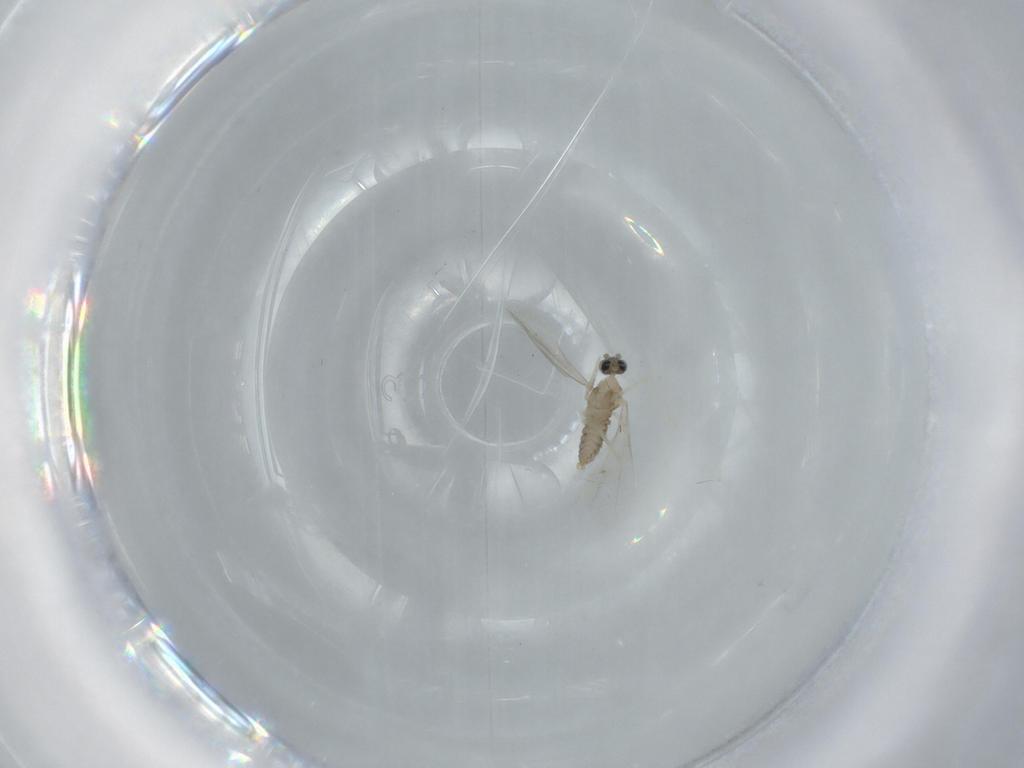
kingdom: Animalia
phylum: Arthropoda
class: Insecta
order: Diptera
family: Cecidomyiidae
